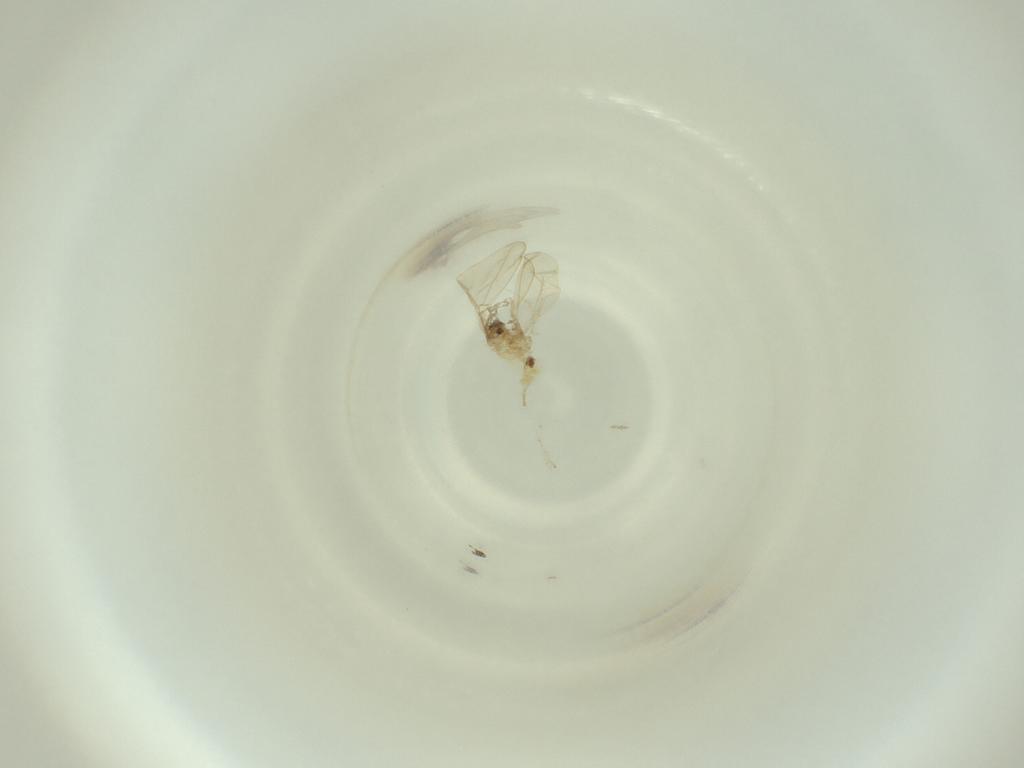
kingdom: Animalia
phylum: Arthropoda
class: Insecta
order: Diptera
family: Cecidomyiidae
